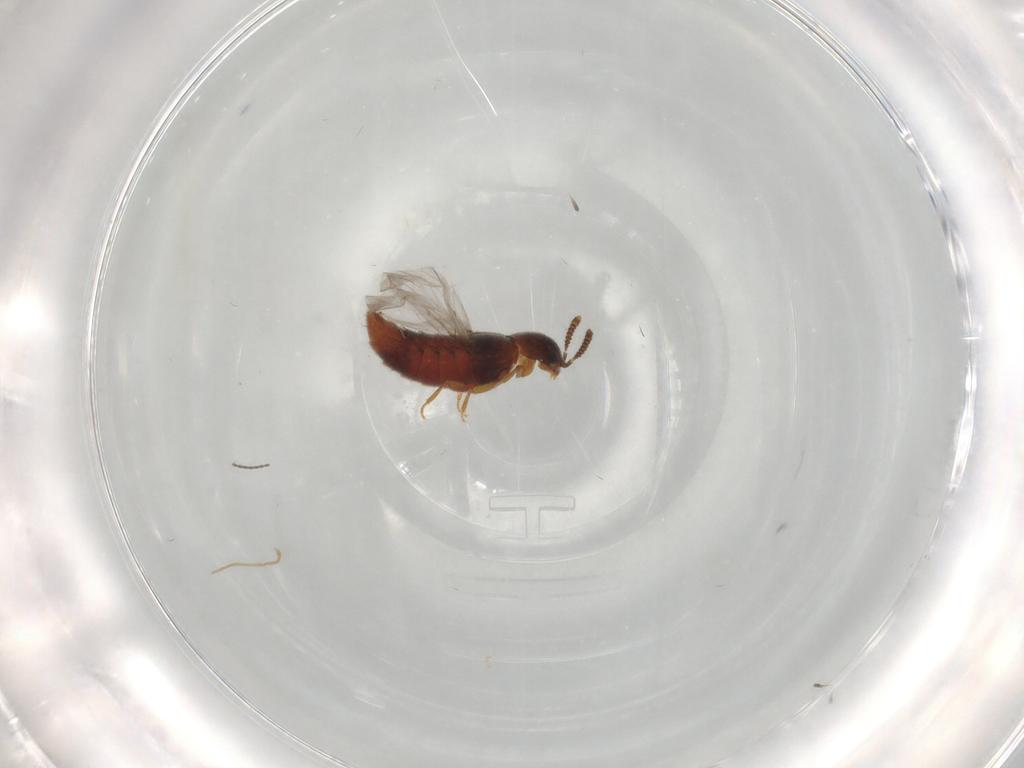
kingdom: Animalia
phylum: Arthropoda
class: Insecta
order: Coleoptera
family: Staphylinidae
